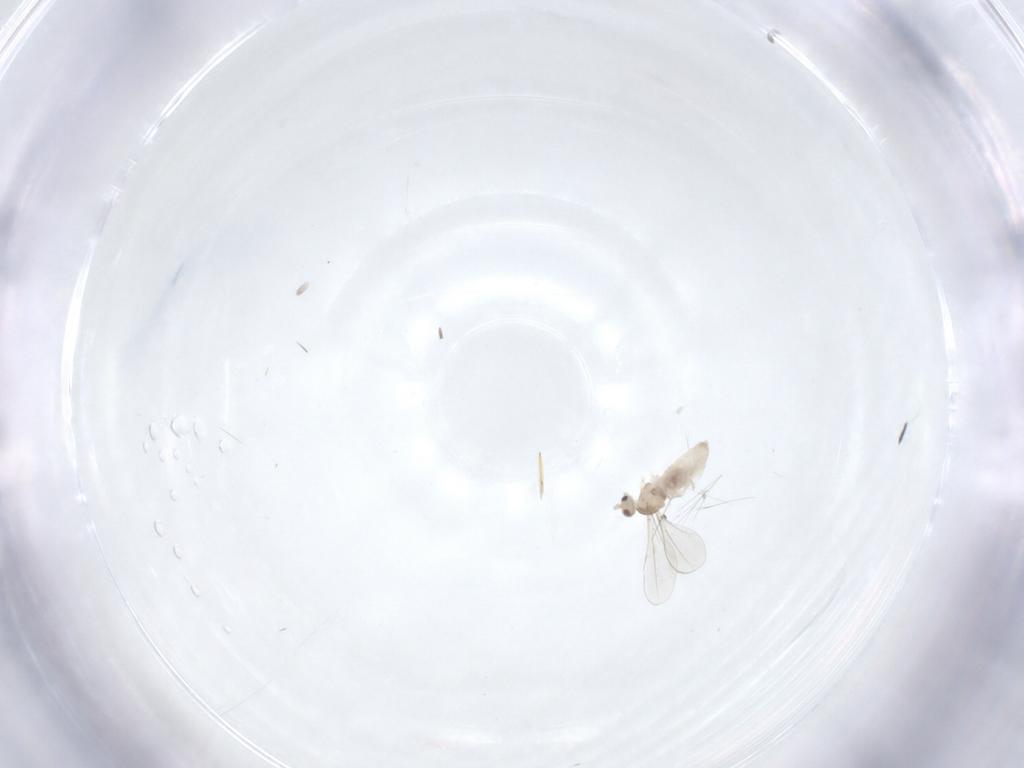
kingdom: Animalia
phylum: Arthropoda
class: Insecta
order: Diptera
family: Cecidomyiidae
